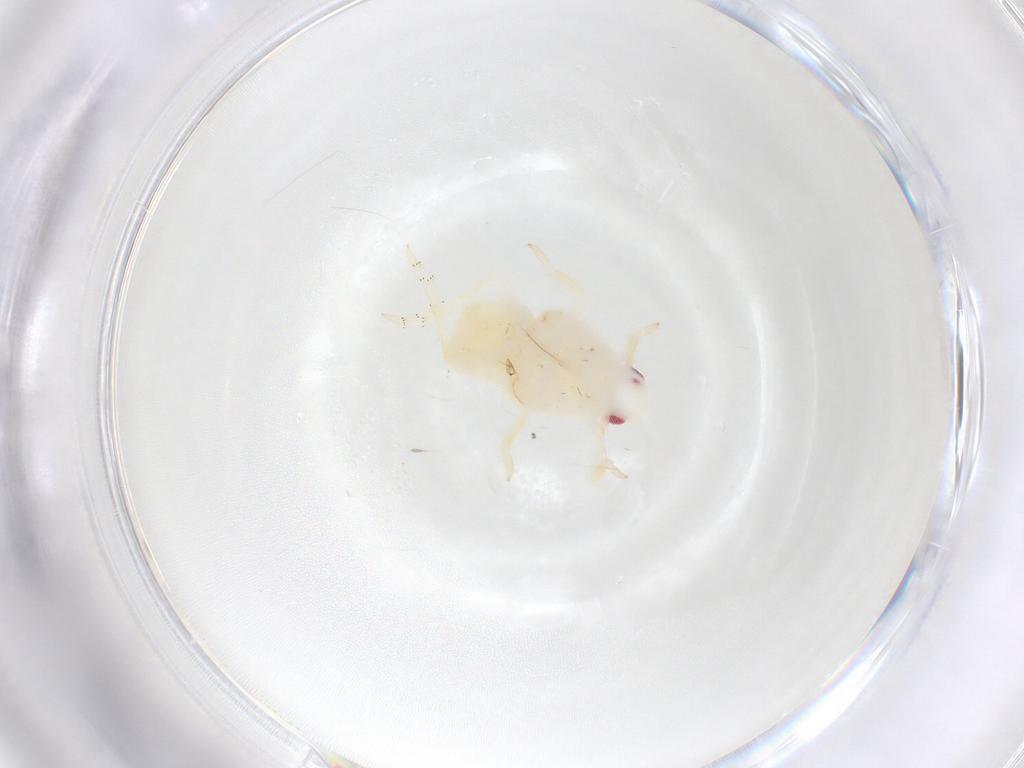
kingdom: Animalia
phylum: Arthropoda
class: Insecta
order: Hemiptera
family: Flatidae
